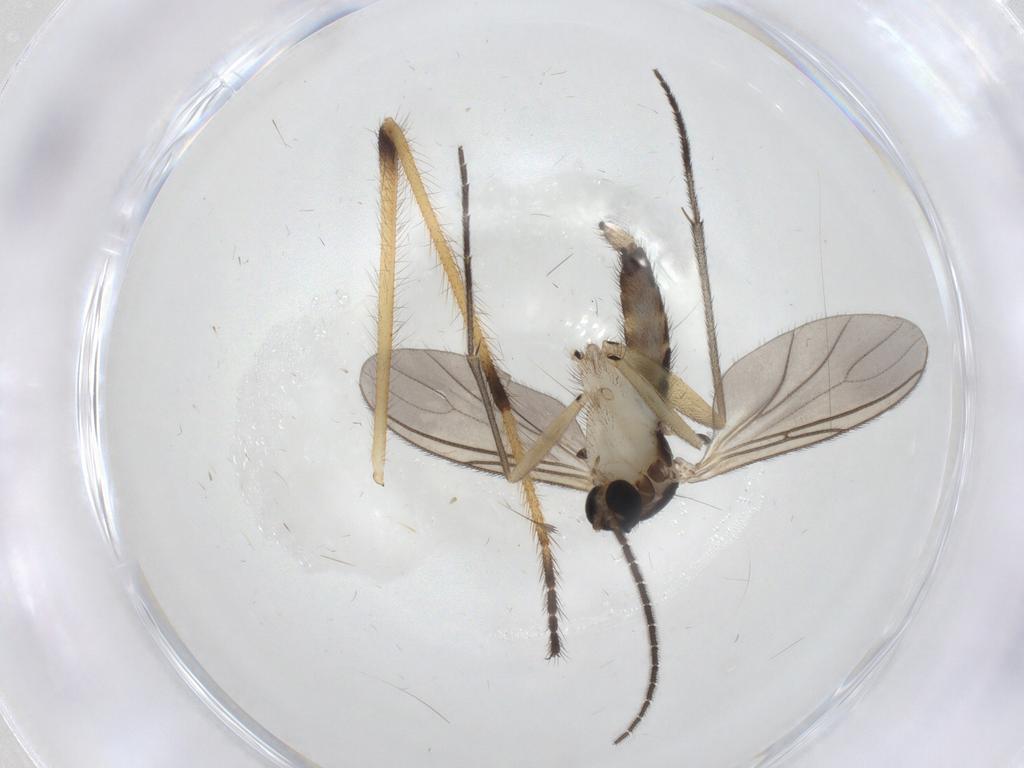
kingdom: Animalia
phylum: Arthropoda
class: Insecta
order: Diptera
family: Sciaridae
